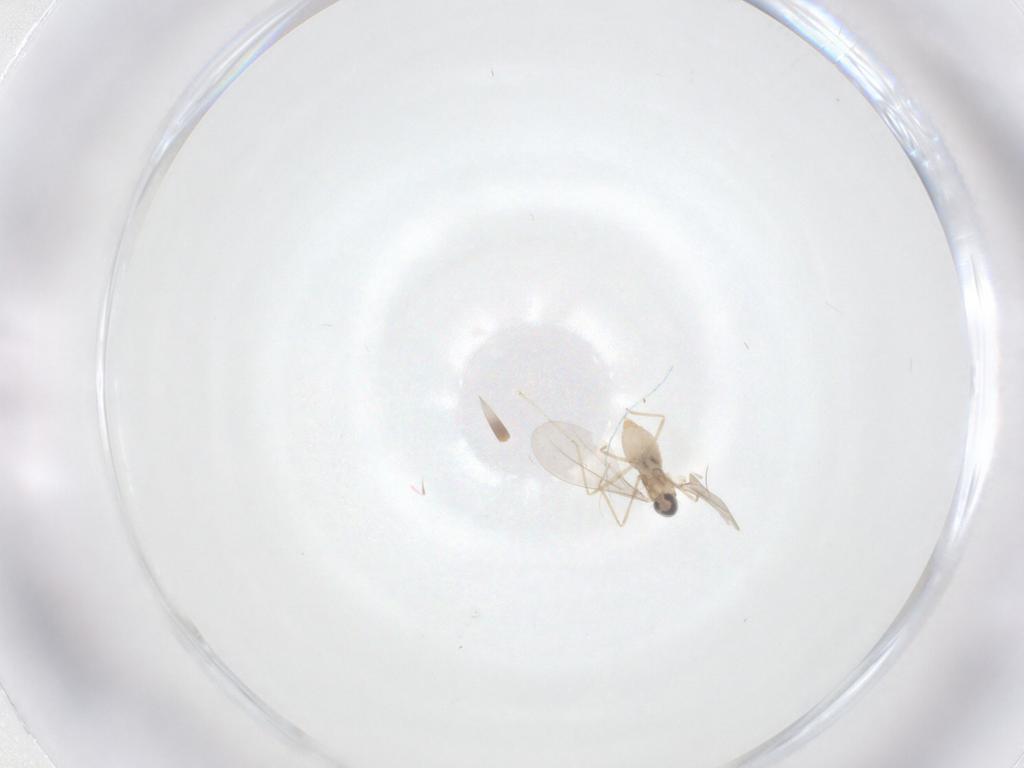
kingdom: Animalia
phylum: Arthropoda
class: Insecta
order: Diptera
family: Cecidomyiidae
